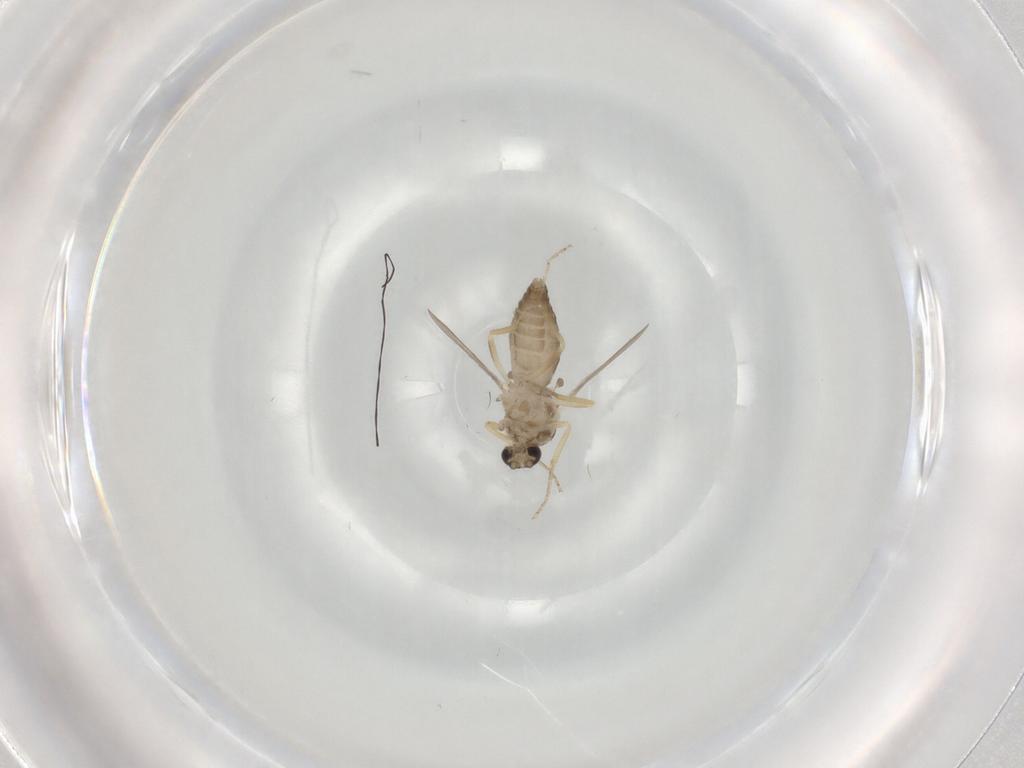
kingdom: Animalia
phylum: Arthropoda
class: Insecta
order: Diptera
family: Ceratopogonidae
